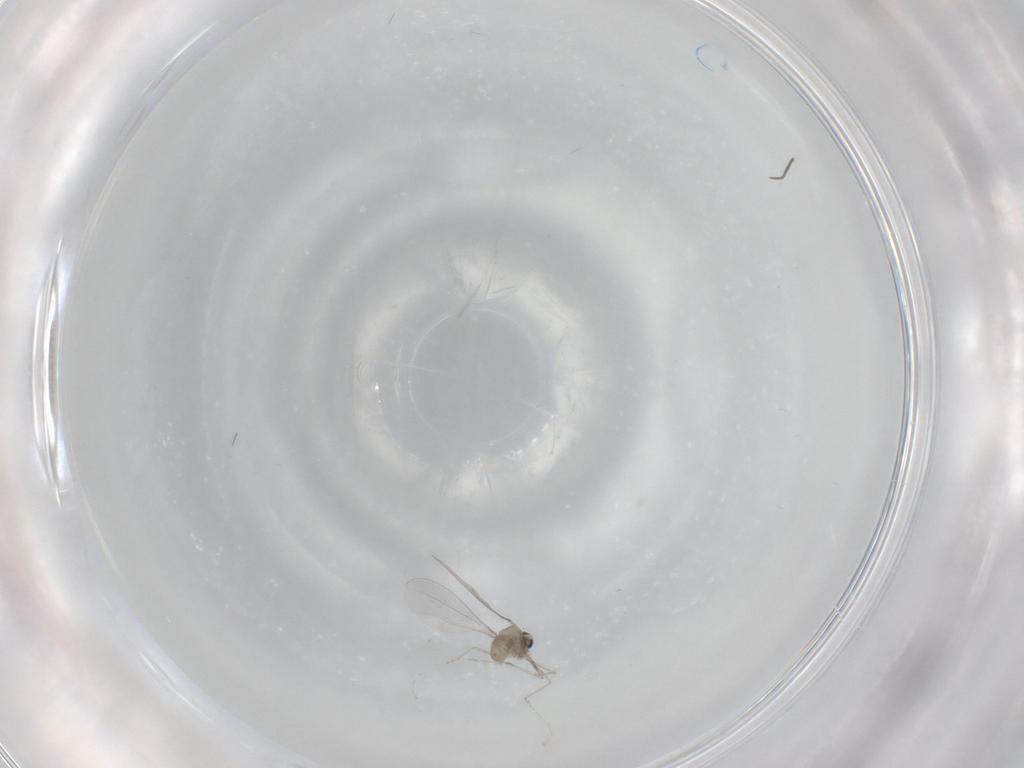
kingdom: Animalia
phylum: Arthropoda
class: Insecta
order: Diptera
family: Cecidomyiidae
